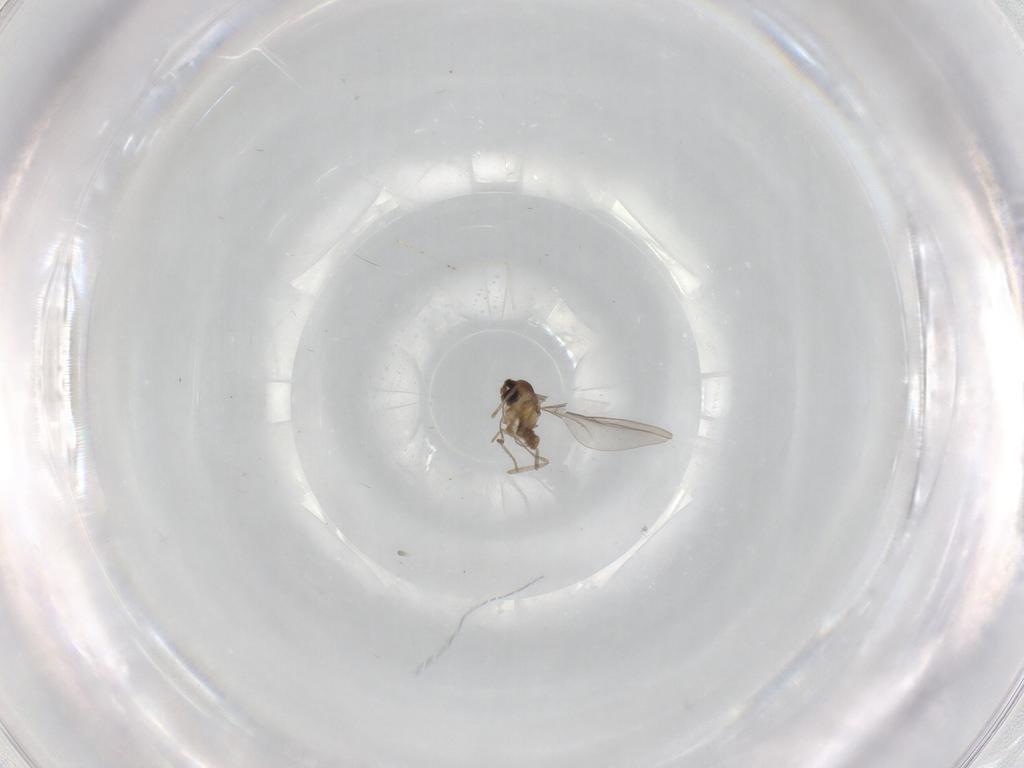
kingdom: Animalia
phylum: Arthropoda
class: Insecta
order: Diptera
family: Cecidomyiidae
